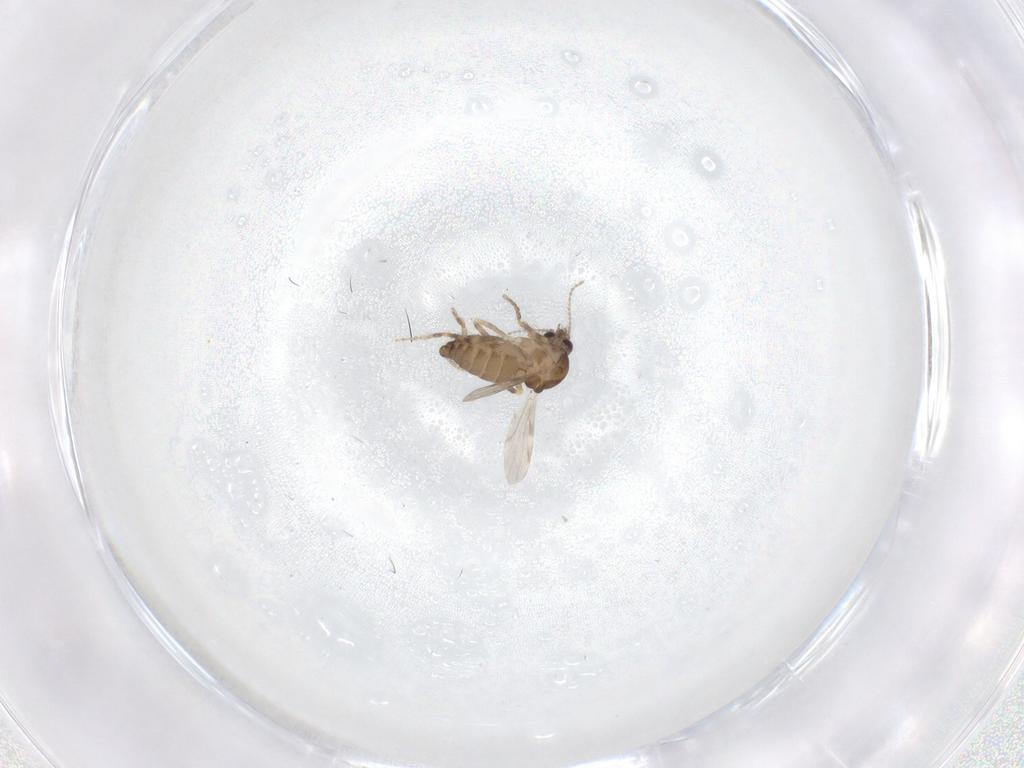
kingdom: Animalia
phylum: Arthropoda
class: Insecta
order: Diptera
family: Ceratopogonidae
